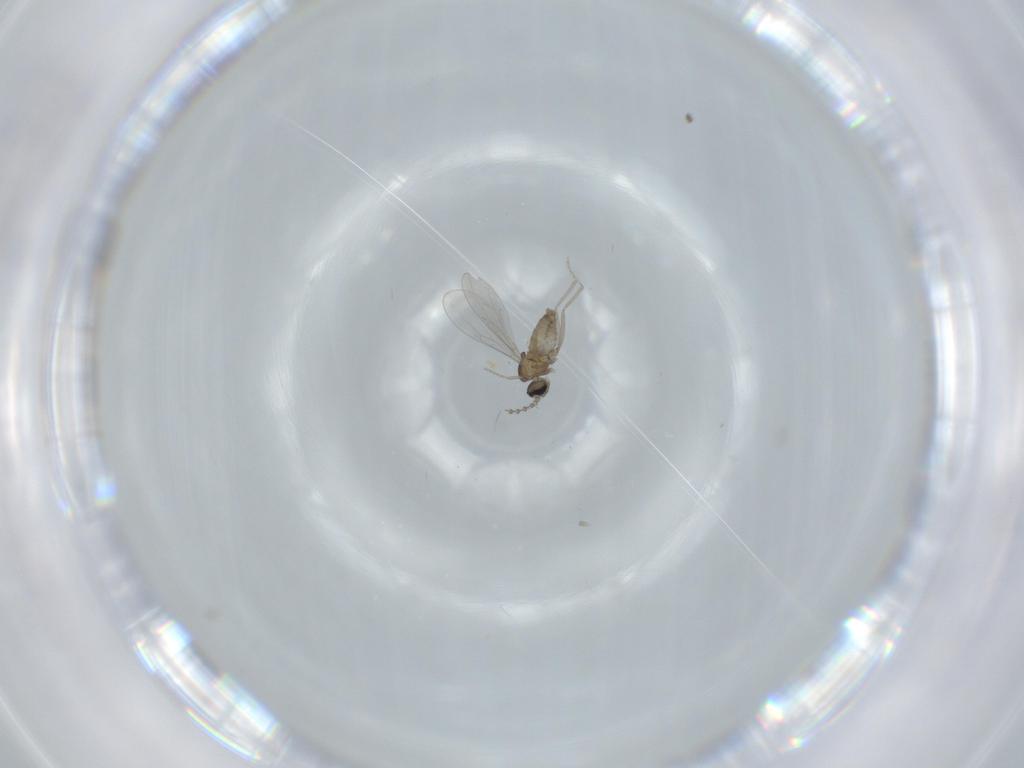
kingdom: Animalia
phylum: Arthropoda
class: Insecta
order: Diptera
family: Cecidomyiidae
